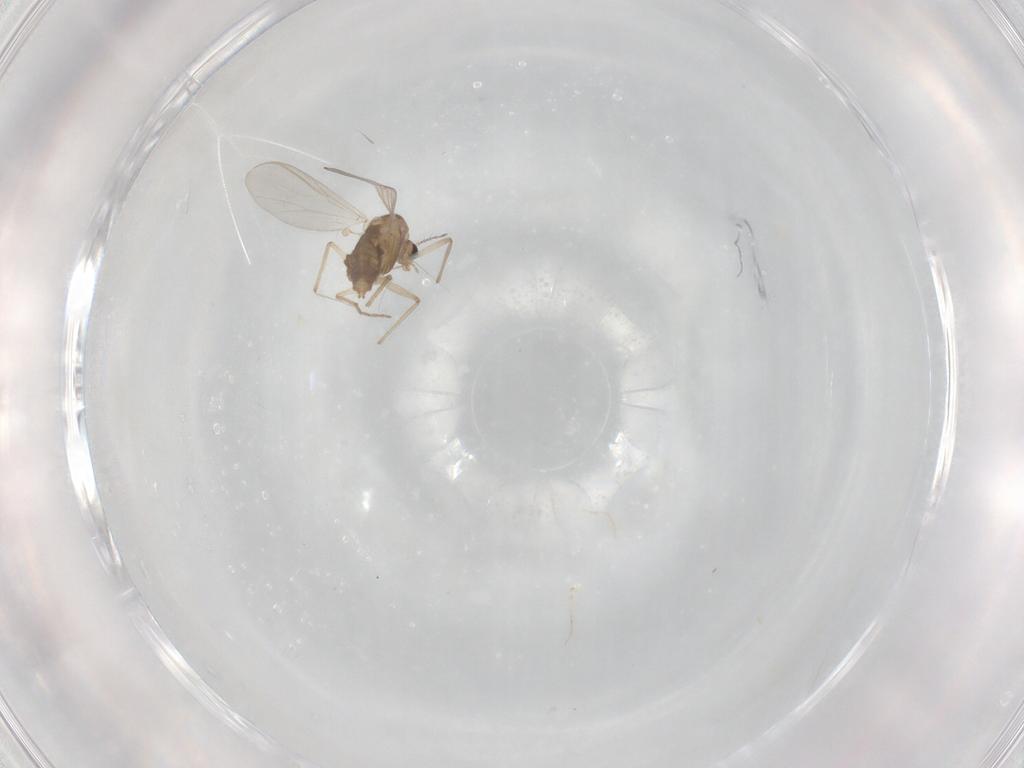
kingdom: Animalia
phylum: Arthropoda
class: Insecta
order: Diptera
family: Chironomidae
